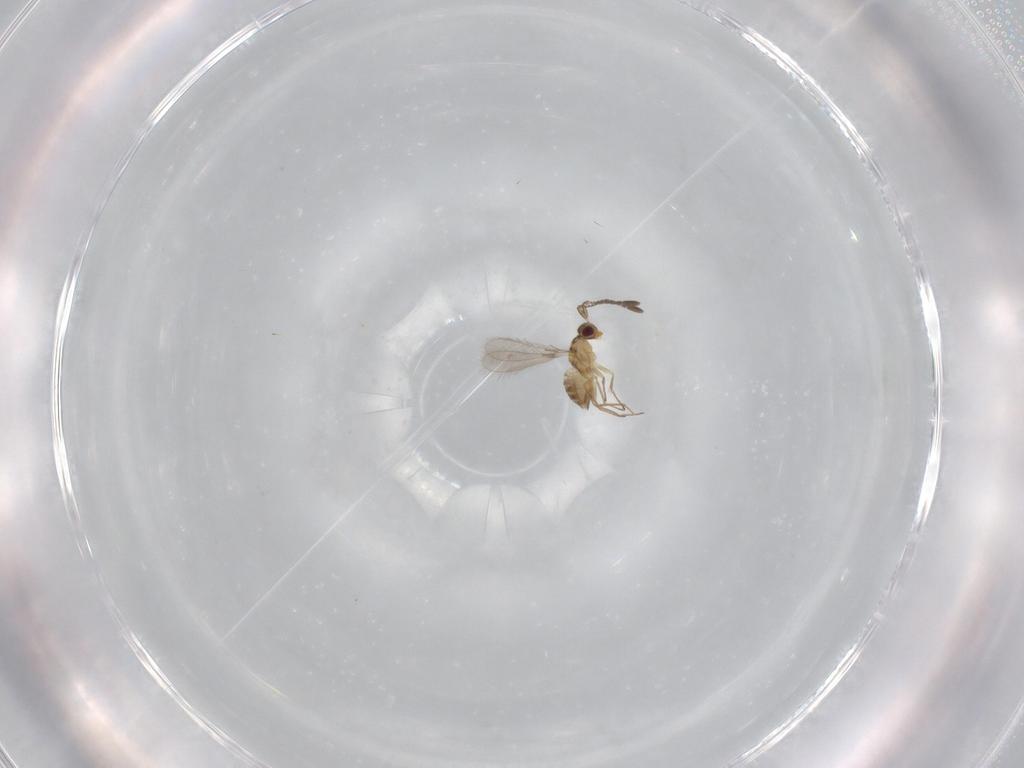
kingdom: Animalia
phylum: Arthropoda
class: Insecta
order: Hymenoptera
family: Mymaridae
